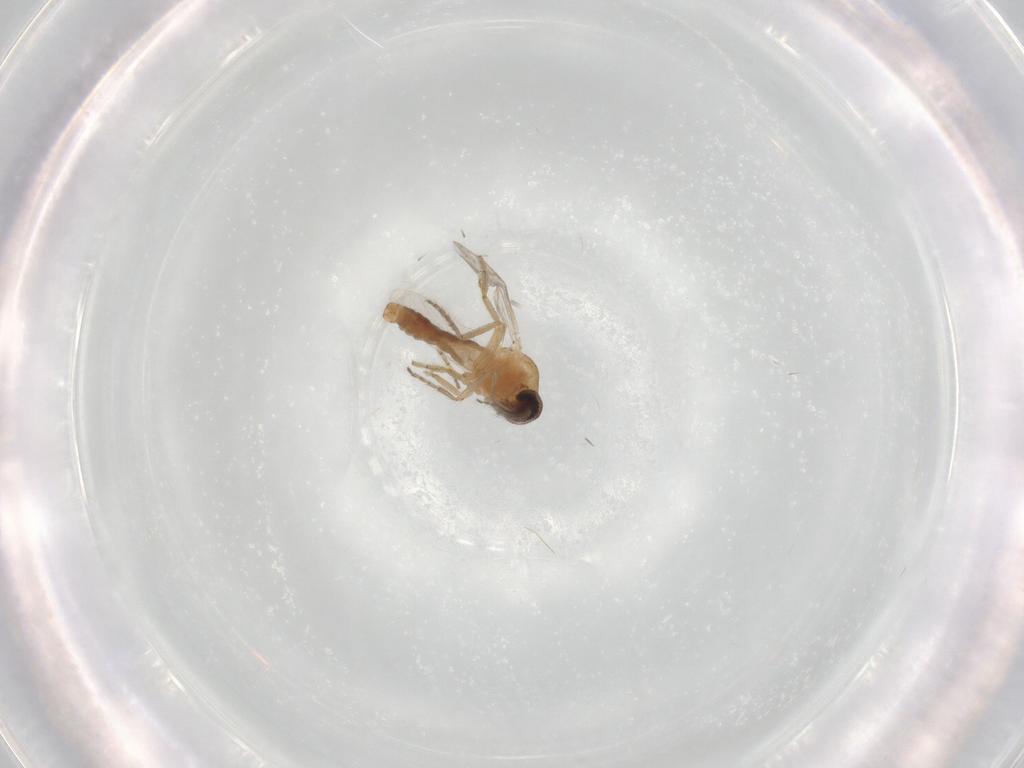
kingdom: Animalia
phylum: Arthropoda
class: Insecta
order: Diptera
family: Ceratopogonidae
